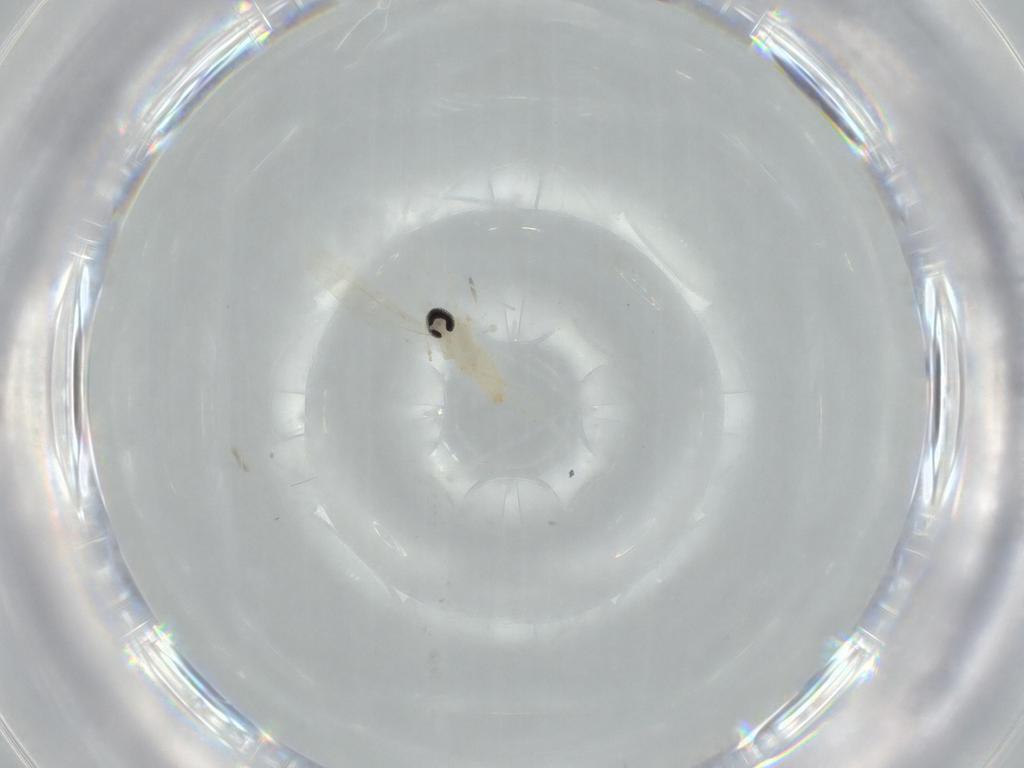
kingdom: Animalia
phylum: Arthropoda
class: Insecta
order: Diptera
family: Cecidomyiidae
